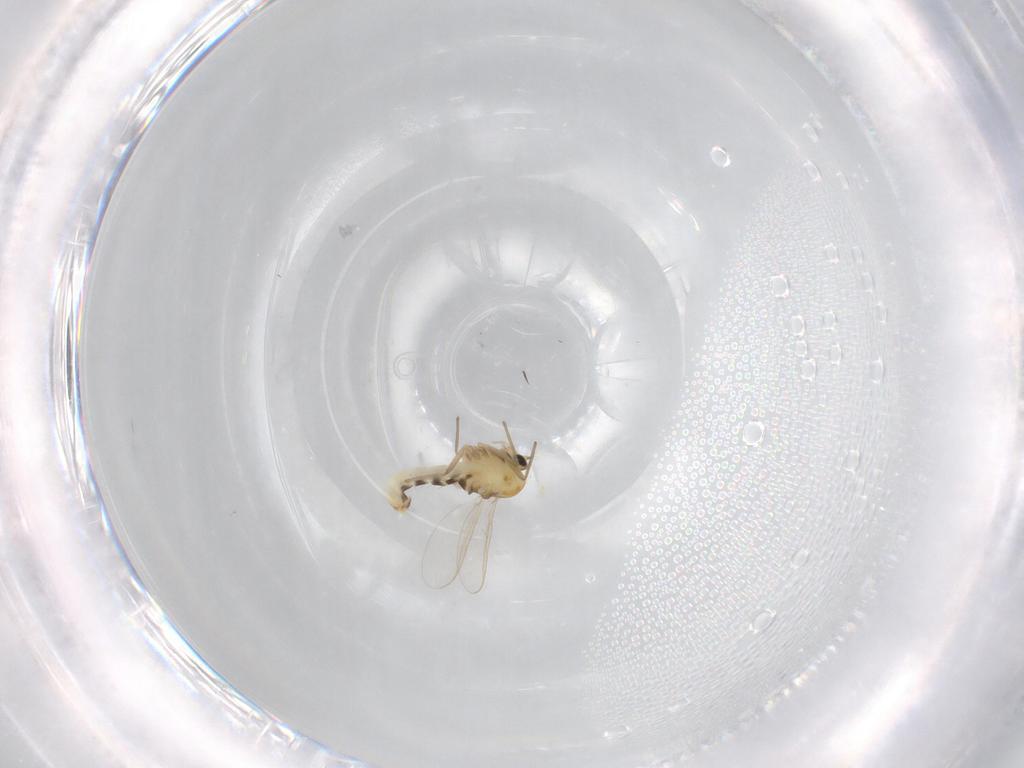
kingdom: Animalia
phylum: Arthropoda
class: Insecta
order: Diptera
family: Chironomidae
